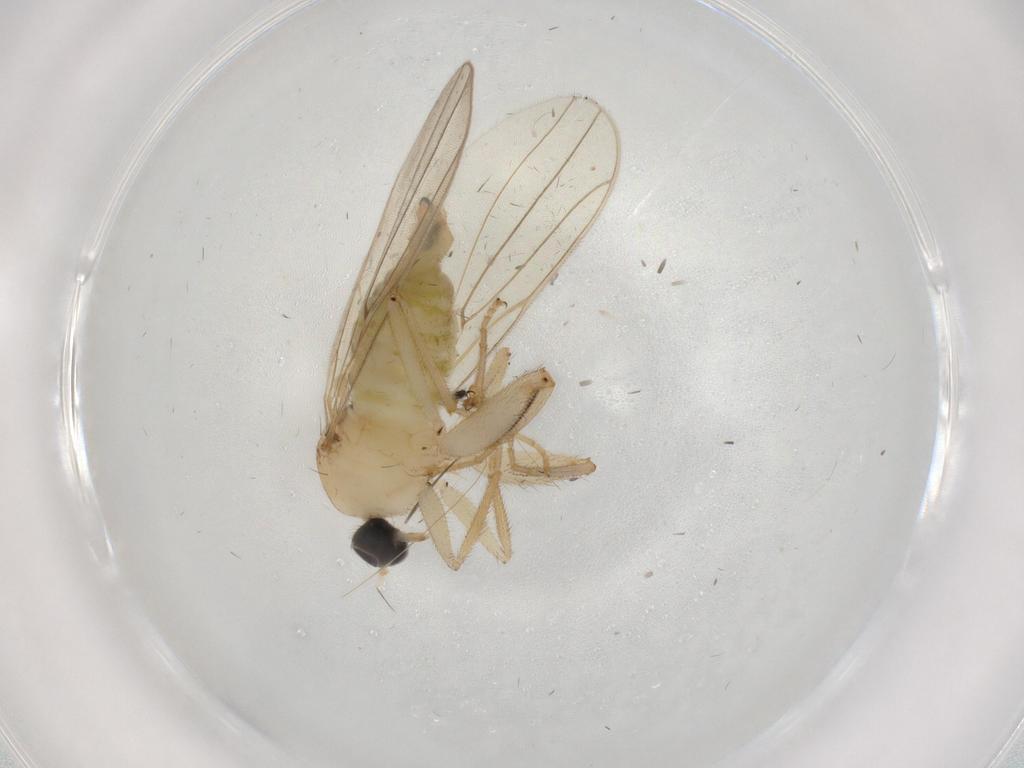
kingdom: Animalia
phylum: Arthropoda
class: Insecta
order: Diptera
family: Hybotidae
